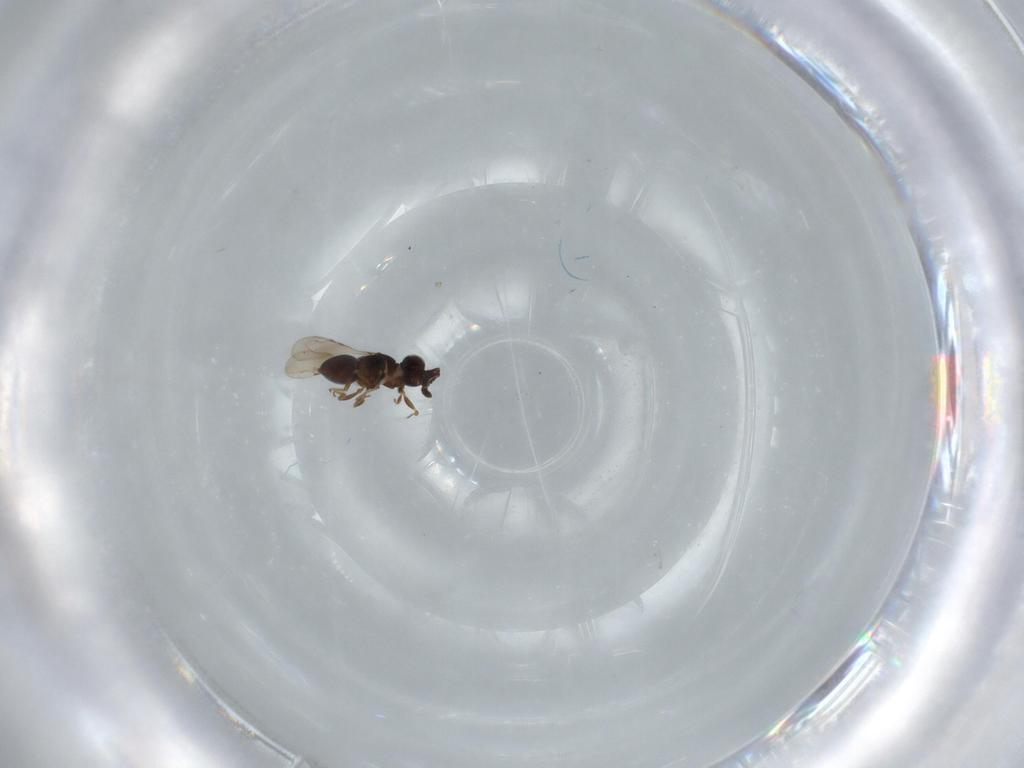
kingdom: Animalia
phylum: Arthropoda
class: Insecta
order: Hymenoptera
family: Ceraphronidae
